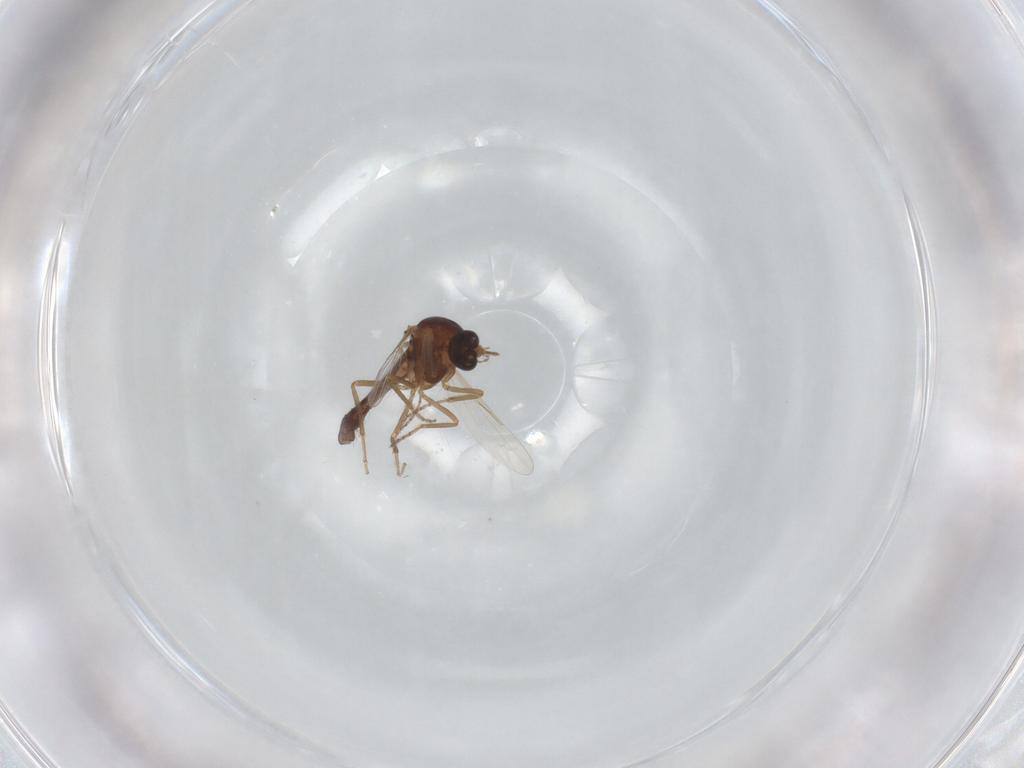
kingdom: Animalia
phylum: Arthropoda
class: Insecta
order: Diptera
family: Ceratopogonidae
